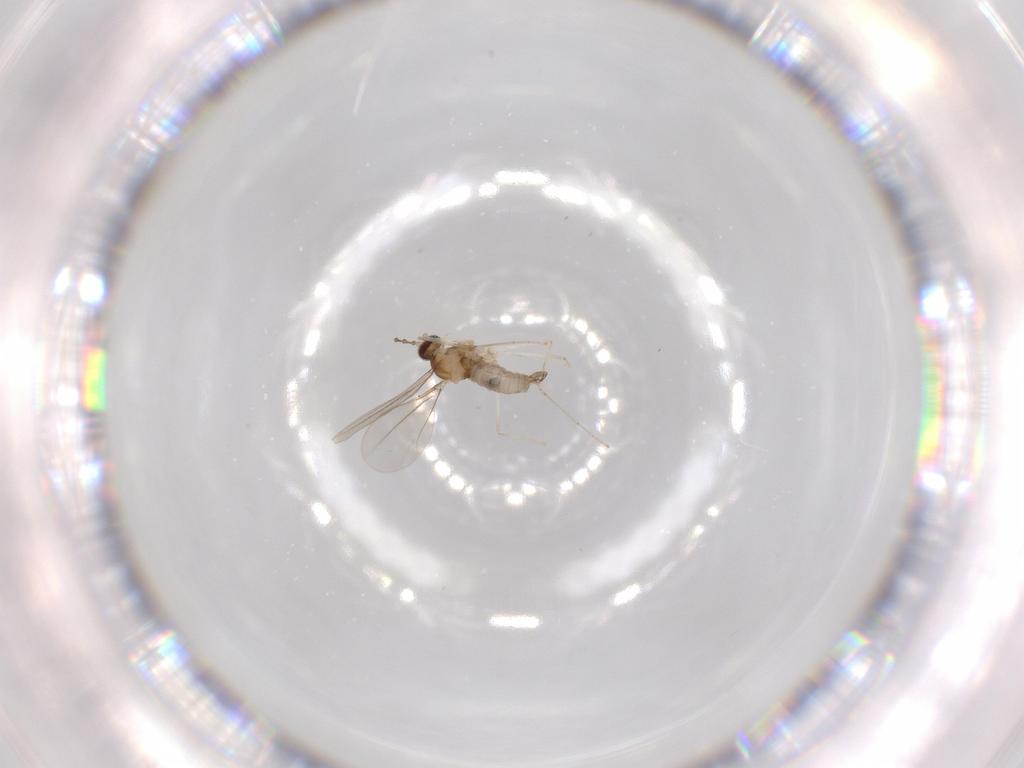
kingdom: Animalia
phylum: Arthropoda
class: Insecta
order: Diptera
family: Cecidomyiidae
